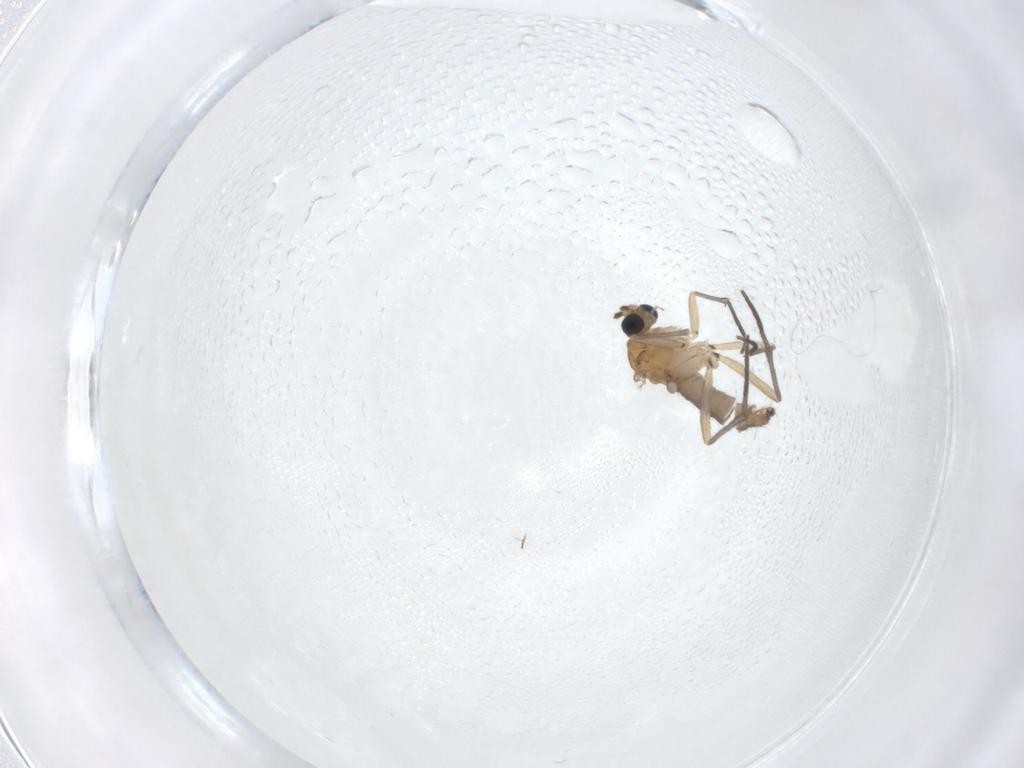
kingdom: Animalia
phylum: Arthropoda
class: Insecta
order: Diptera
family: Sciaridae
